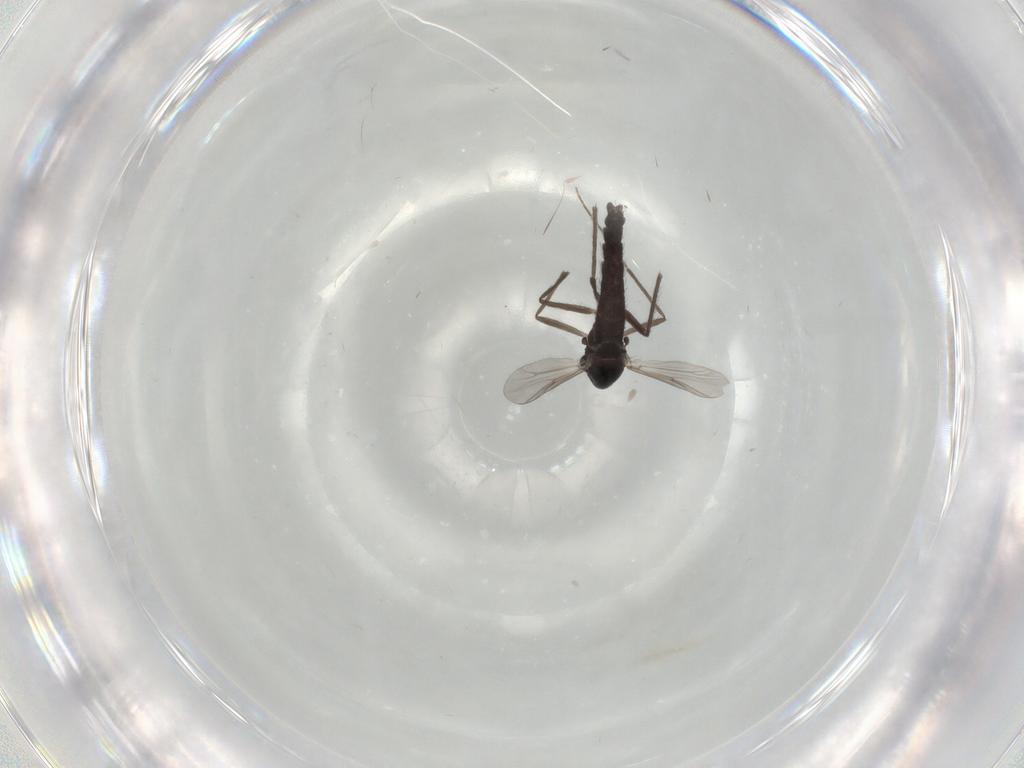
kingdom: Animalia
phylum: Arthropoda
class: Insecta
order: Diptera
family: Chironomidae
